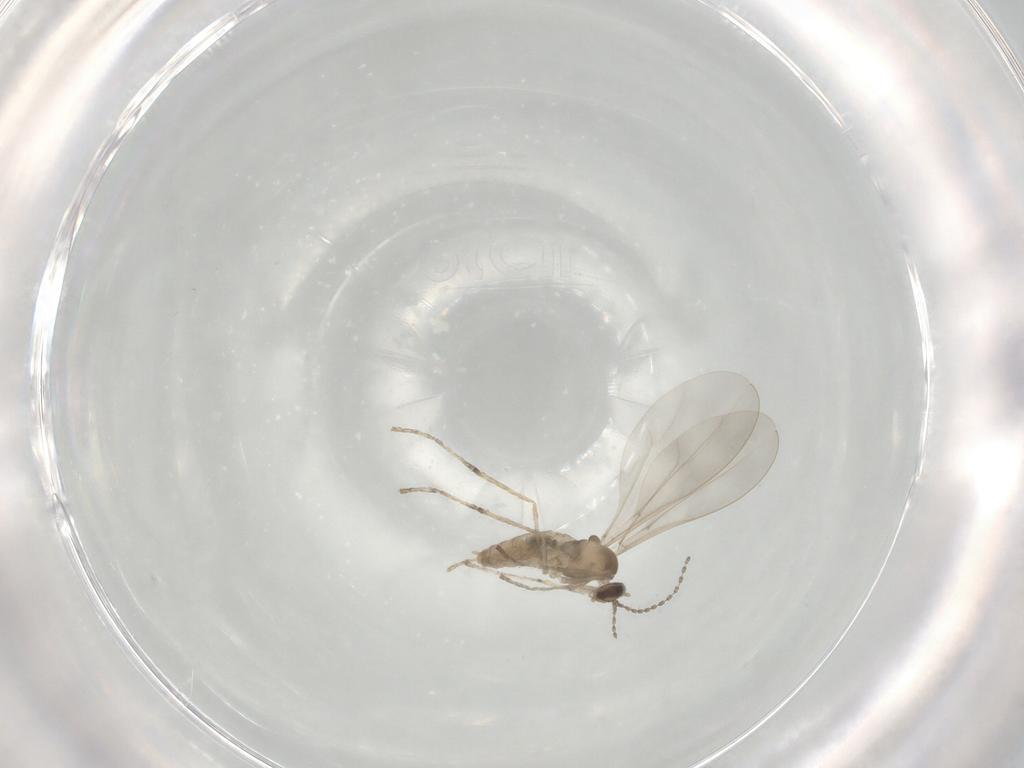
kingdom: Animalia
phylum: Arthropoda
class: Insecta
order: Diptera
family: Cecidomyiidae
